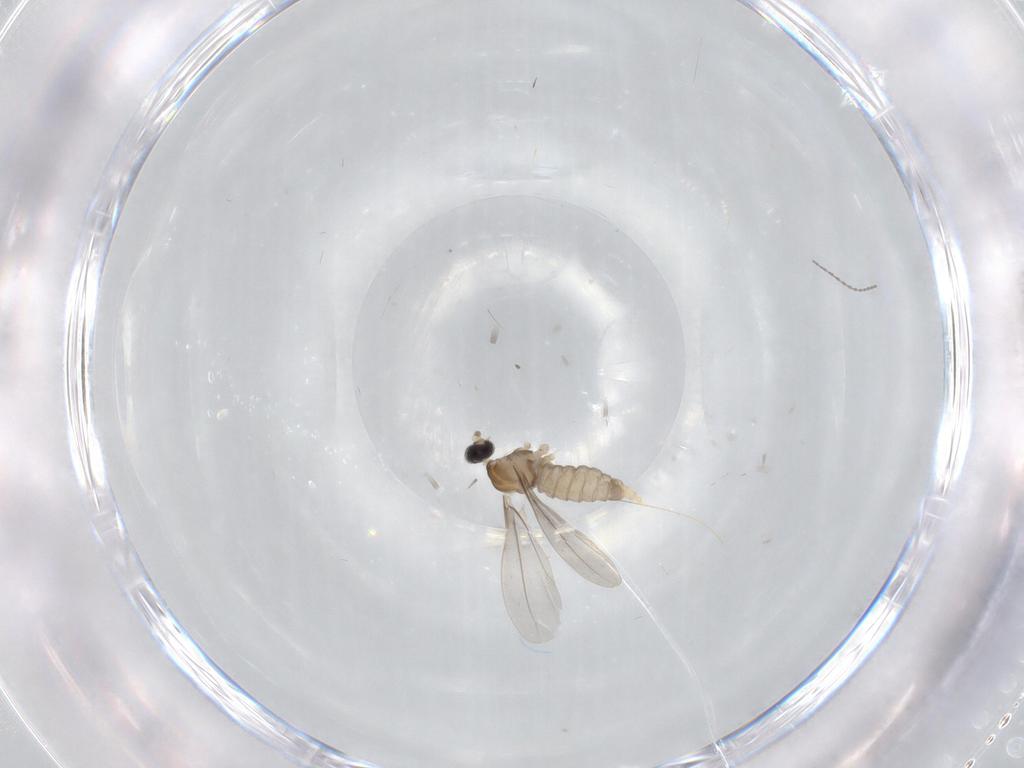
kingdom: Animalia
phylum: Arthropoda
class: Insecta
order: Diptera
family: Cecidomyiidae
